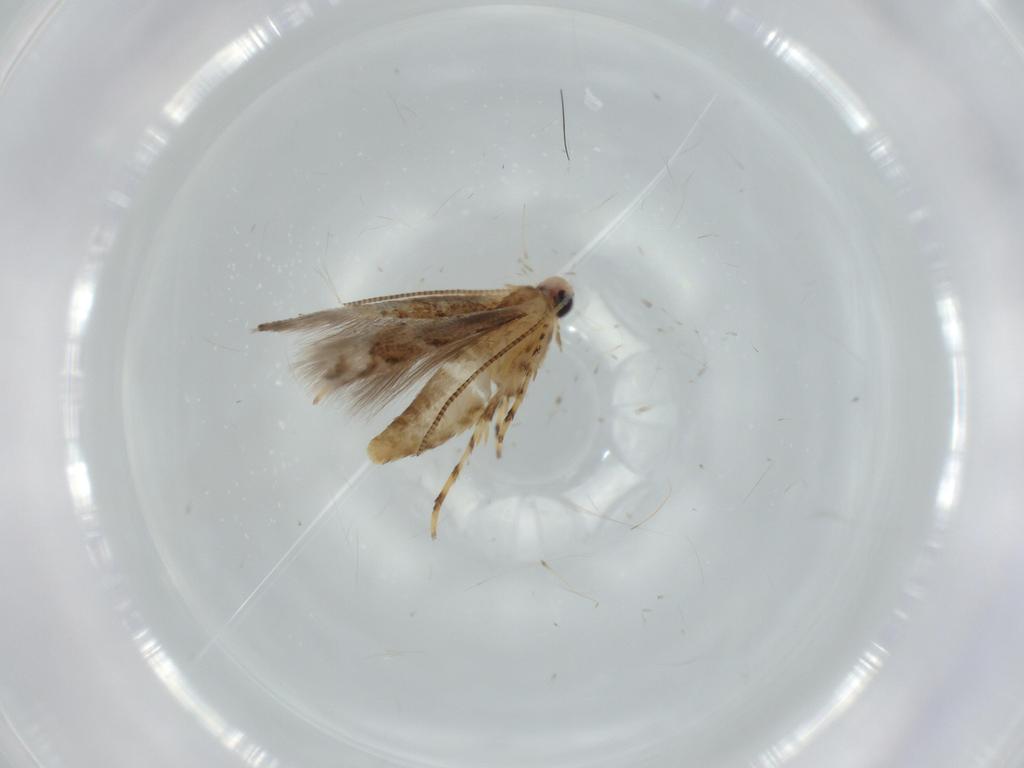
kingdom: Animalia
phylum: Arthropoda
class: Insecta
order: Lepidoptera
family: Gracillariidae
